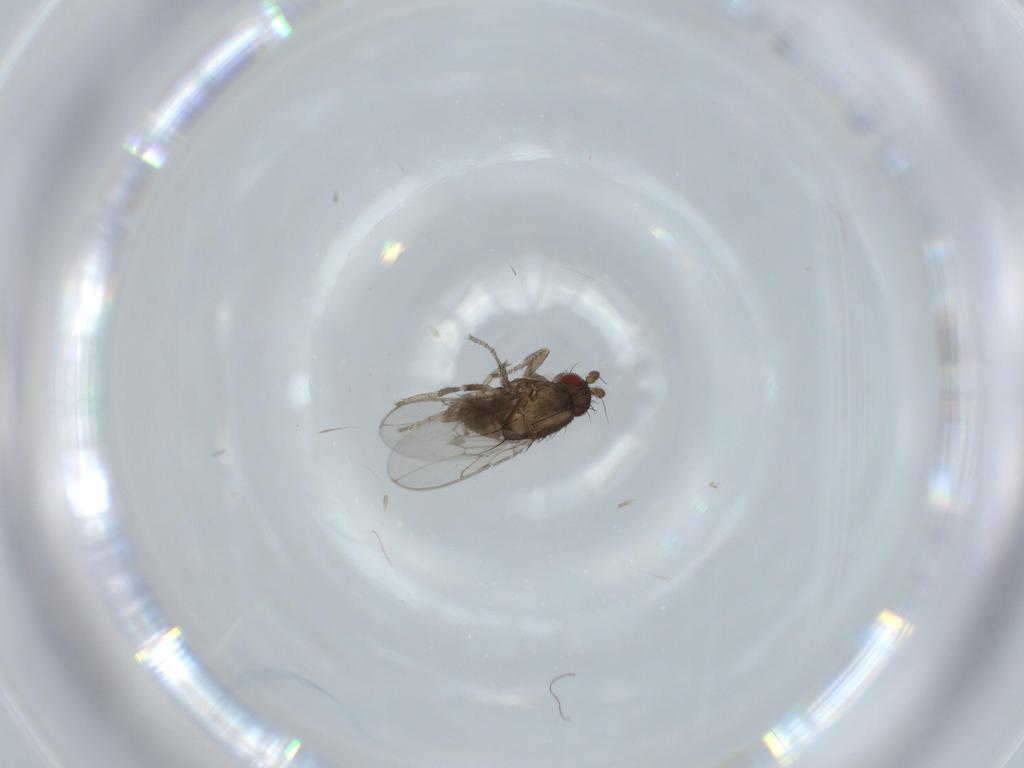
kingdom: Animalia
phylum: Arthropoda
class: Insecta
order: Diptera
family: Sphaeroceridae
